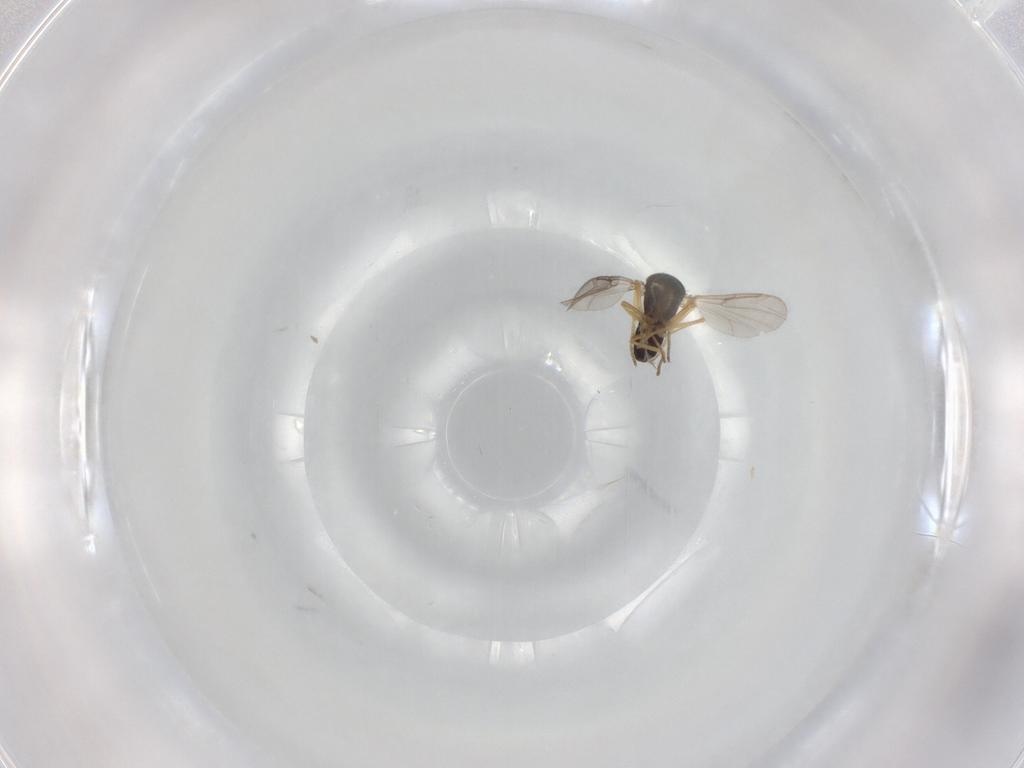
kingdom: Animalia
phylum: Arthropoda
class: Insecta
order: Diptera
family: Ceratopogonidae
